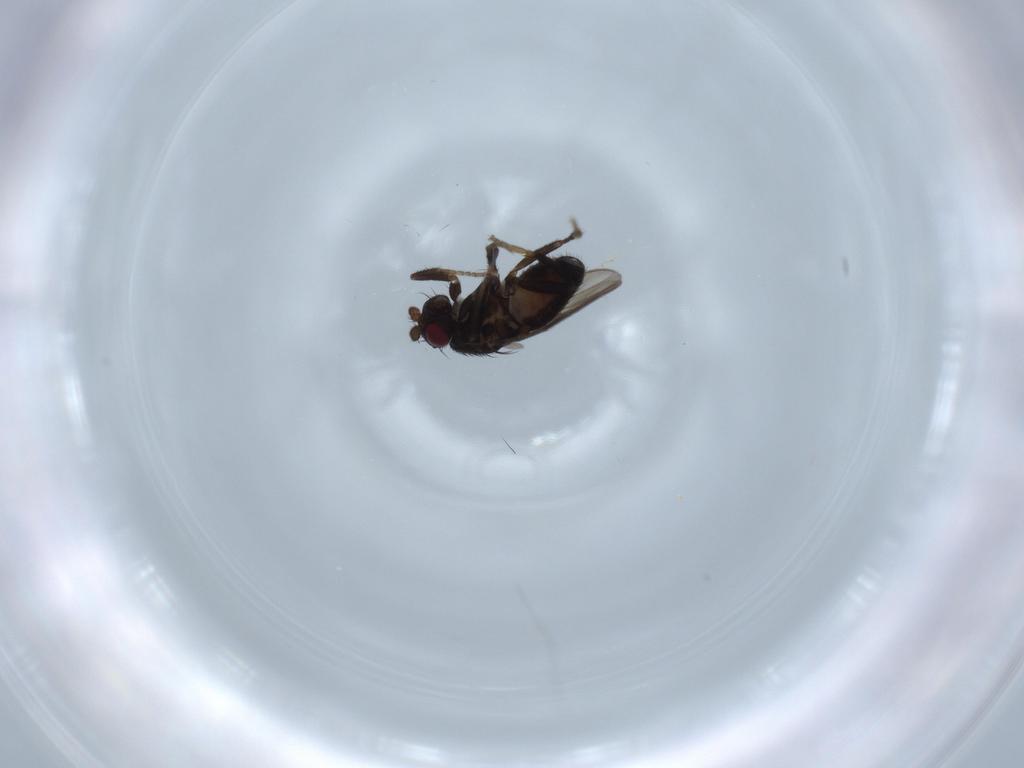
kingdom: Animalia
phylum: Arthropoda
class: Insecta
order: Diptera
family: Sphaeroceridae
